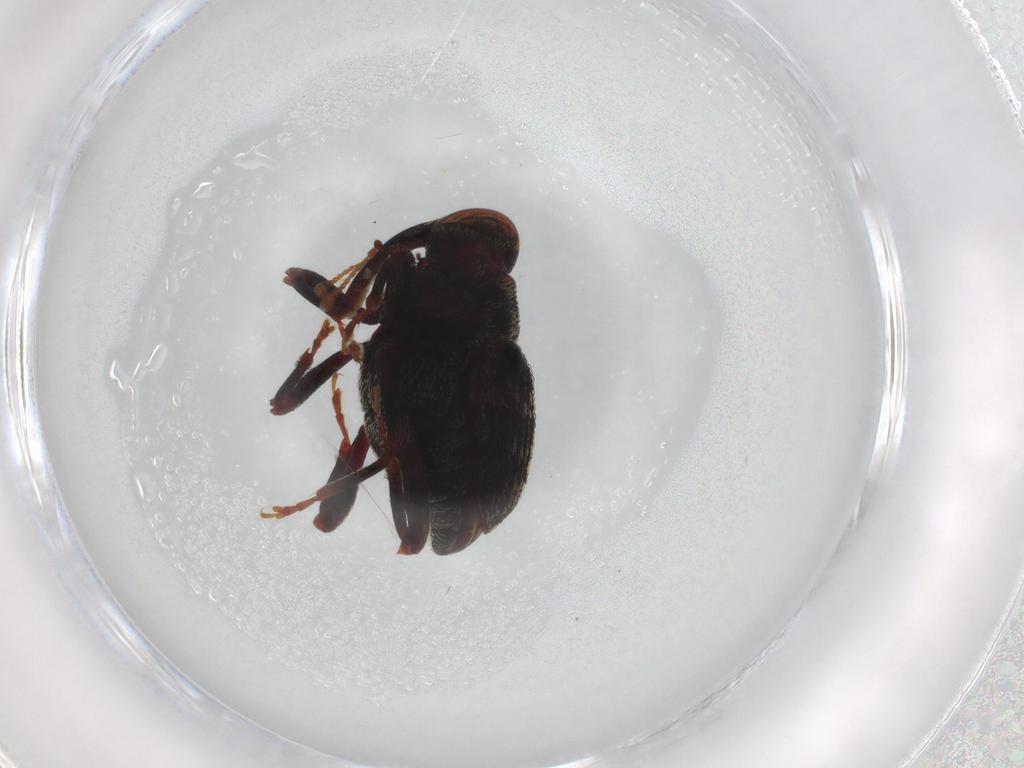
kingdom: Animalia
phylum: Arthropoda
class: Insecta
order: Coleoptera
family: Curculionidae
